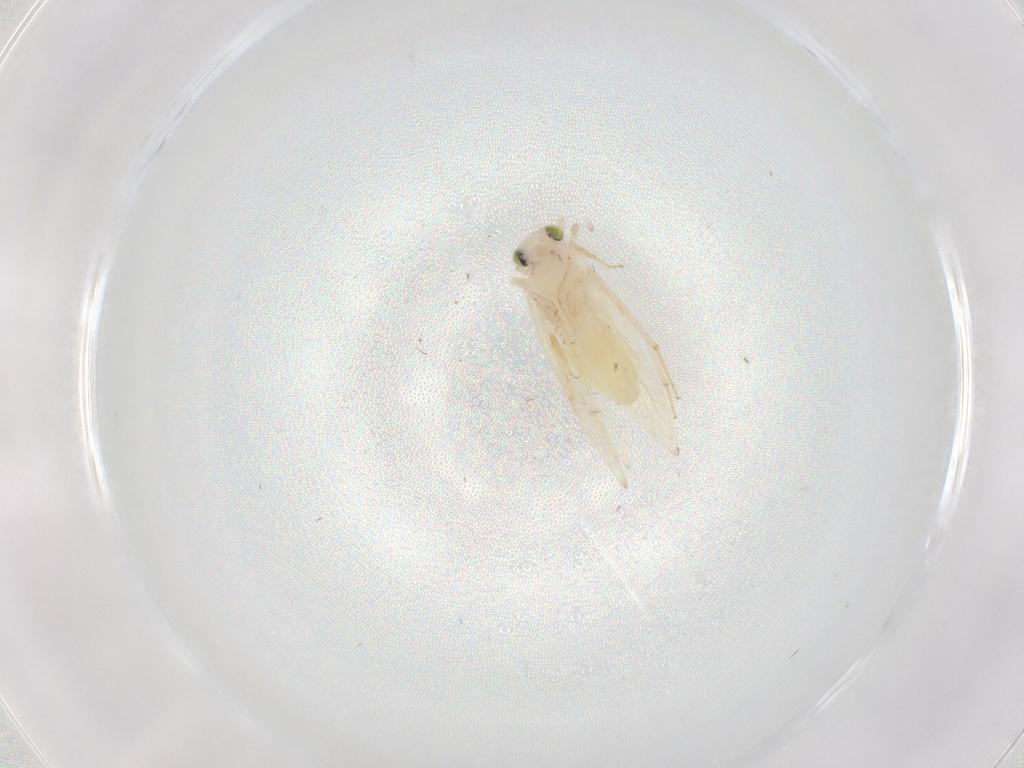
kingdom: Animalia
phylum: Arthropoda
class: Insecta
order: Psocodea
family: Lepidopsocidae
